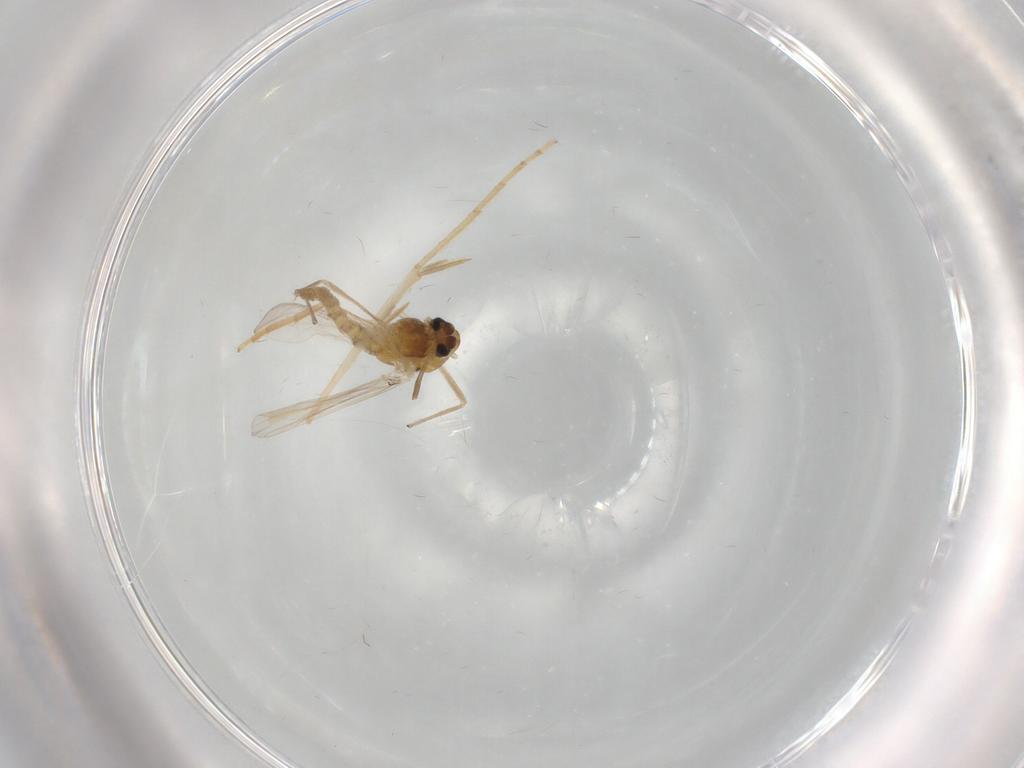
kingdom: Animalia
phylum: Arthropoda
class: Insecta
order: Diptera
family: Chironomidae
